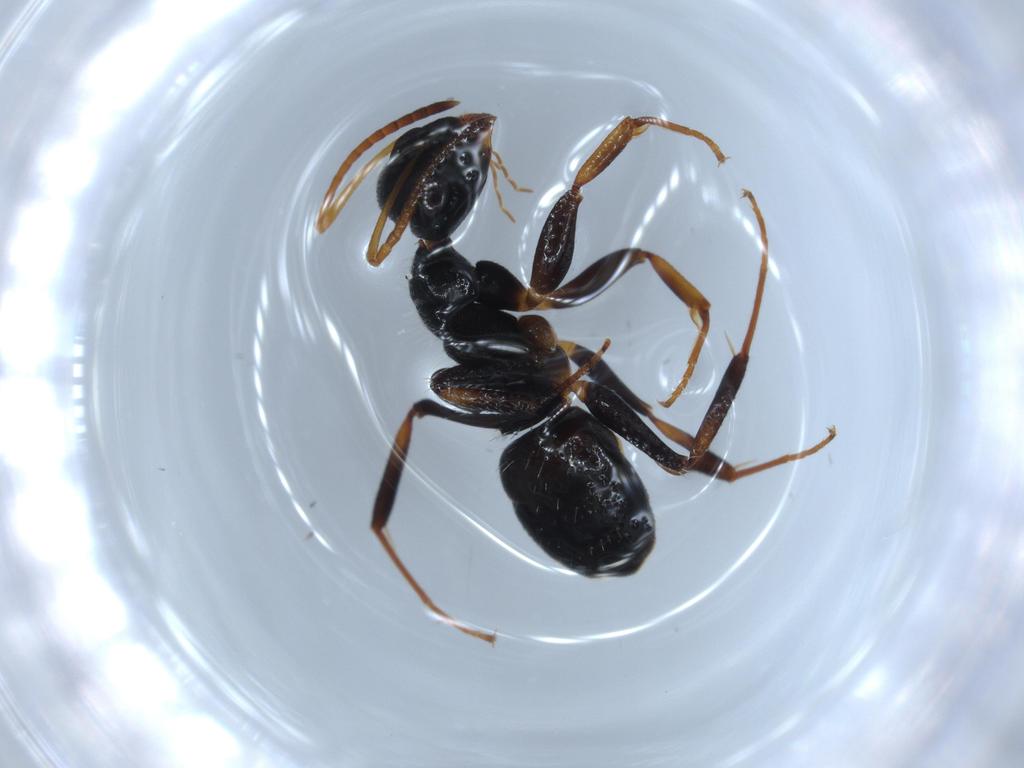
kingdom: Animalia
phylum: Arthropoda
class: Insecta
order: Hymenoptera
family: Formicidae
